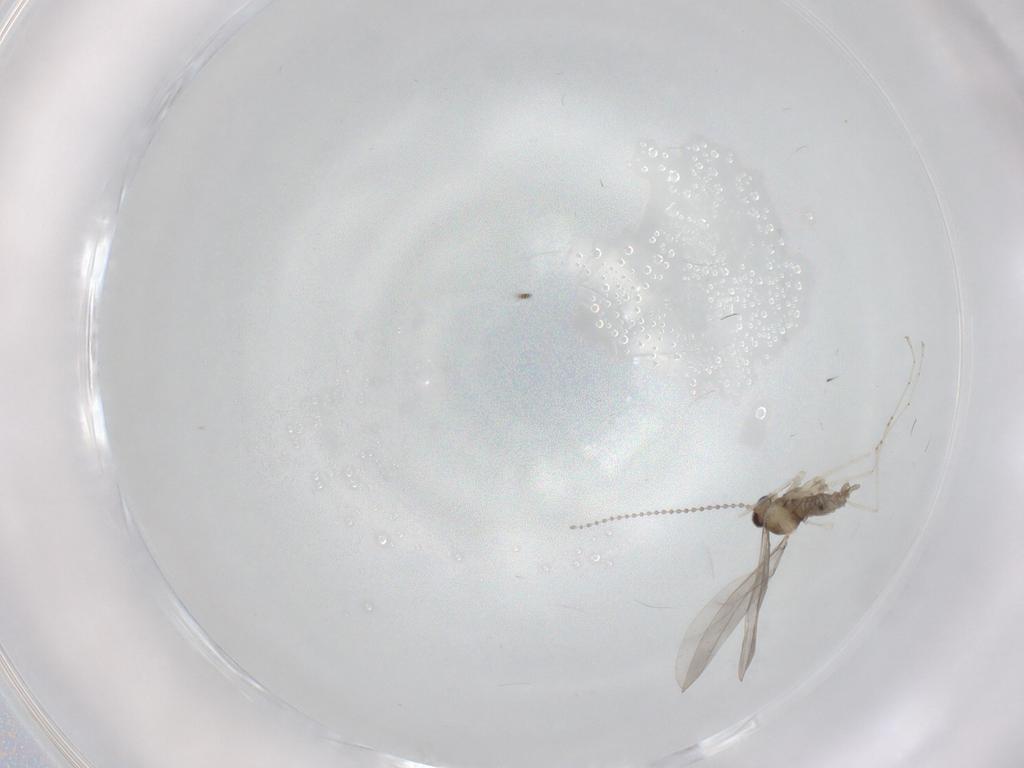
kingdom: Animalia
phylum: Arthropoda
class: Insecta
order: Diptera
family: Cecidomyiidae
